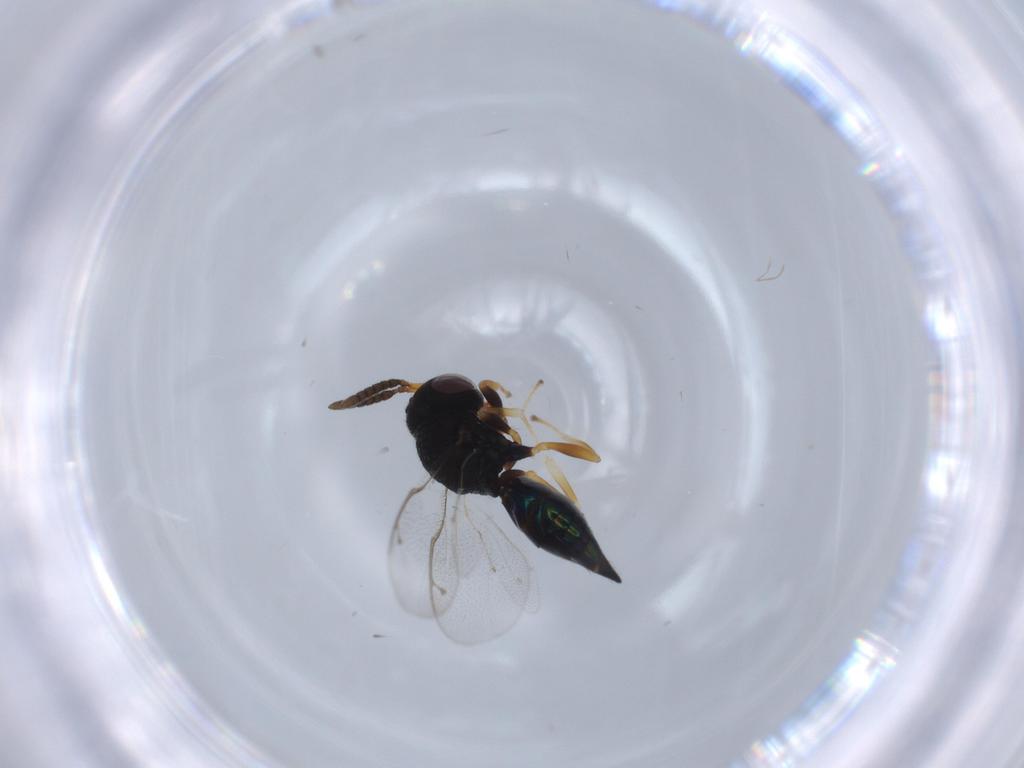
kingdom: Animalia
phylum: Arthropoda
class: Insecta
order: Hymenoptera
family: Pteromalidae
